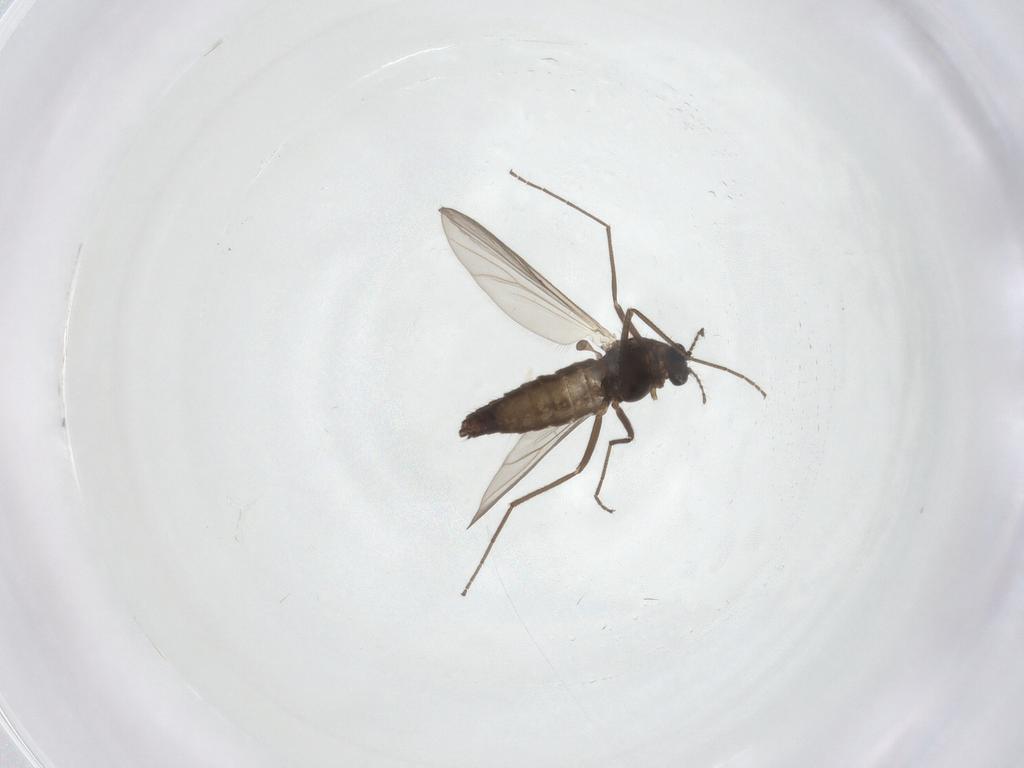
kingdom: Animalia
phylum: Arthropoda
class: Insecta
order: Diptera
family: Chironomidae
